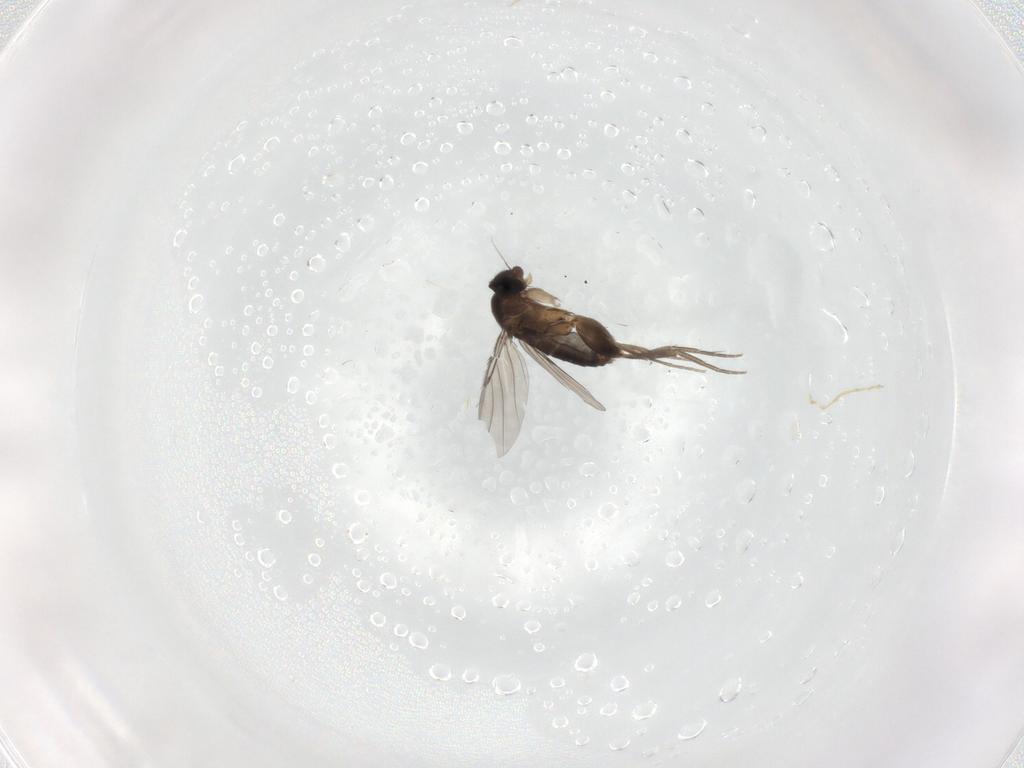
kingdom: Animalia
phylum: Arthropoda
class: Insecta
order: Diptera
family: Phoridae
